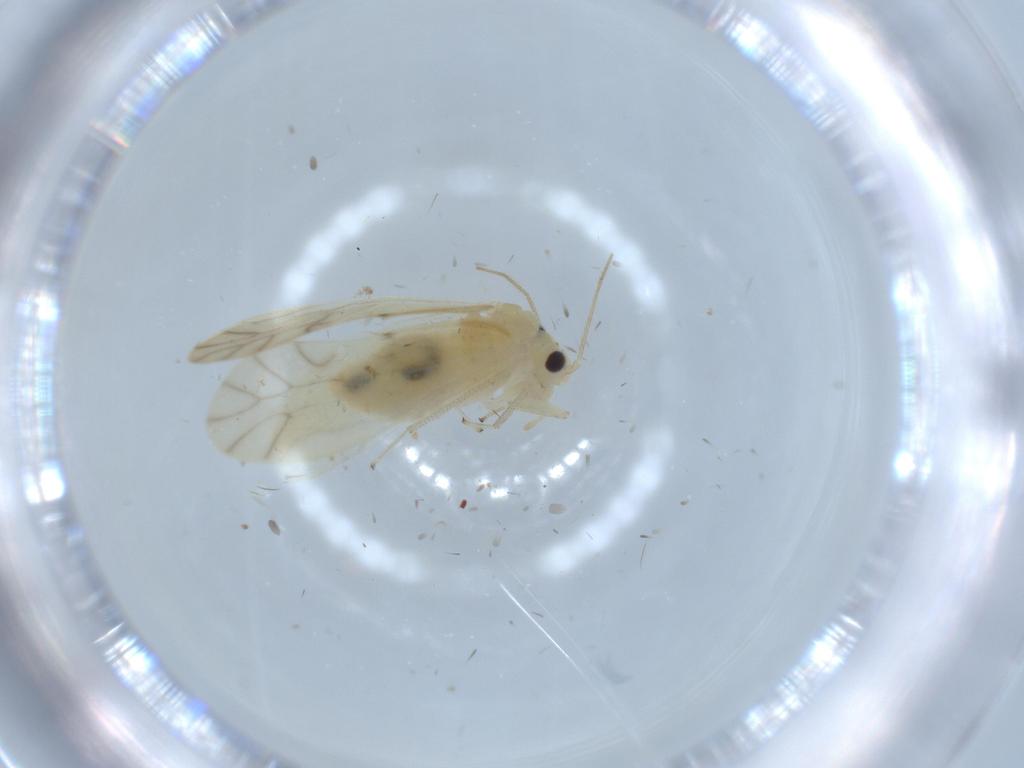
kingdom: Animalia
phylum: Arthropoda
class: Insecta
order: Psocodea
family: Caeciliusidae
